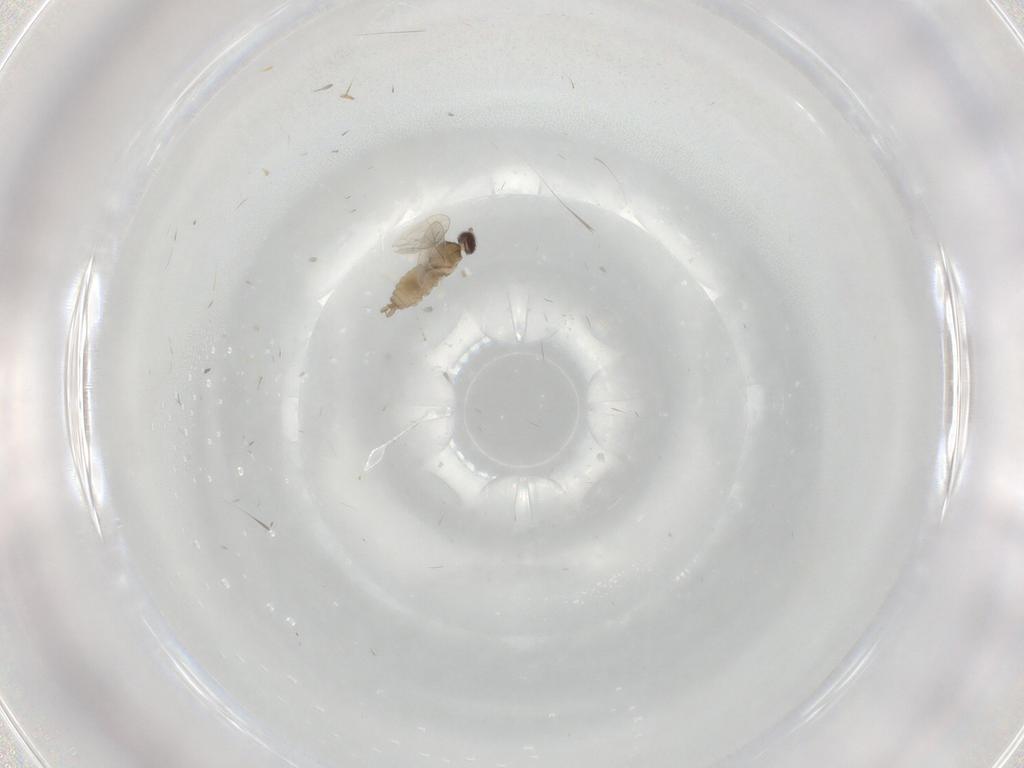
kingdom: Animalia
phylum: Arthropoda
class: Insecta
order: Diptera
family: Cecidomyiidae
